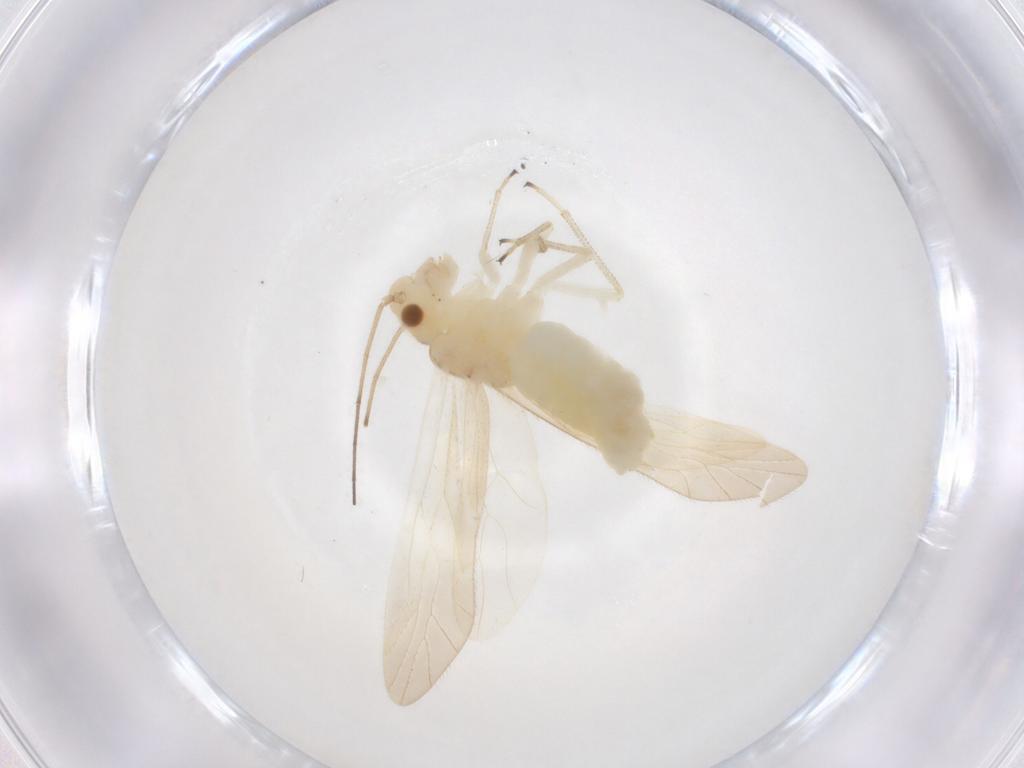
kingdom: Animalia
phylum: Arthropoda
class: Insecta
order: Psocodea
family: Caeciliusidae
